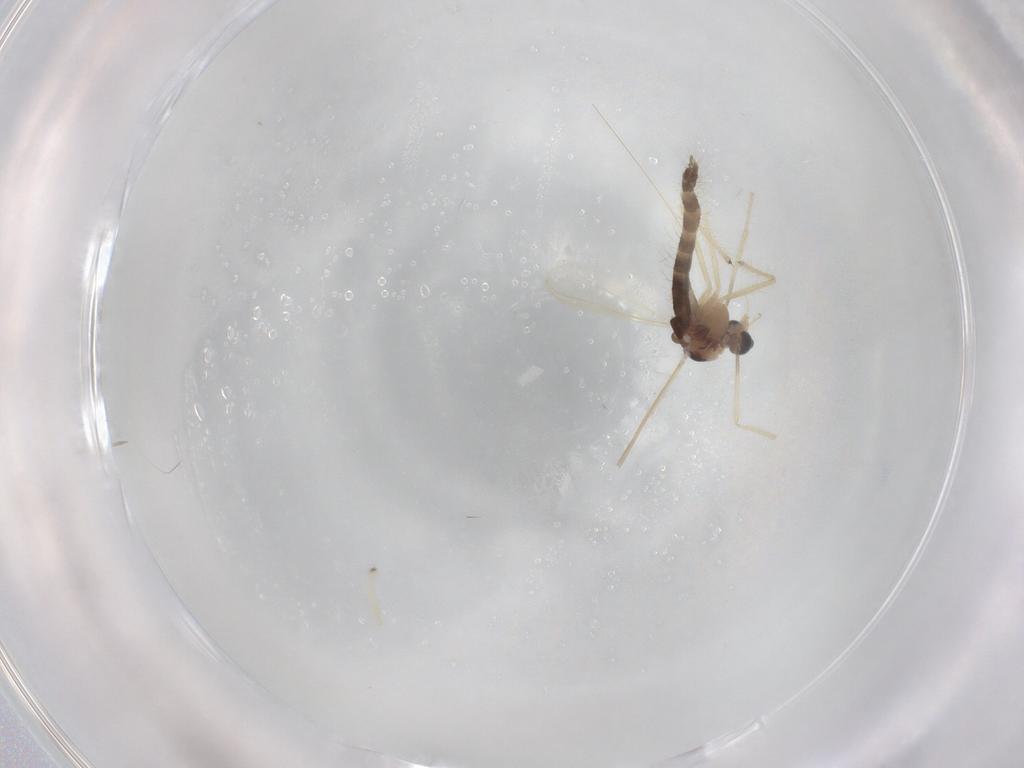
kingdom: Animalia
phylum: Arthropoda
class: Insecta
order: Diptera
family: Chironomidae
